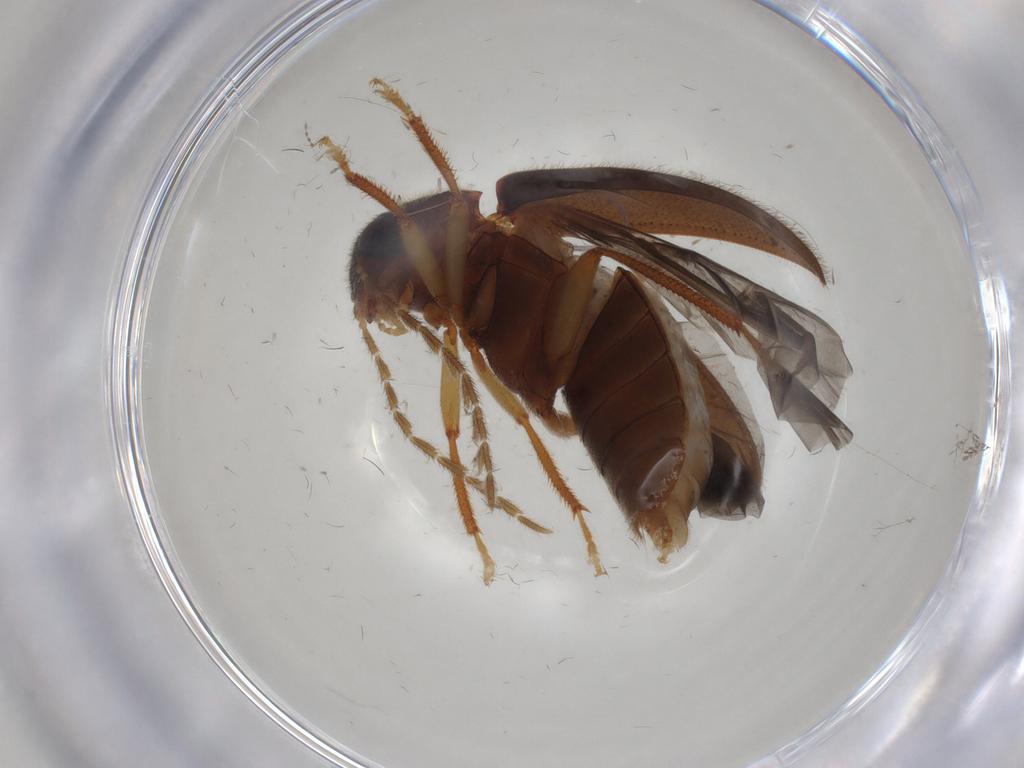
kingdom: Animalia
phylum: Arthropoda
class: Insecta
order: Coleoptera
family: Ptilodactylidae
